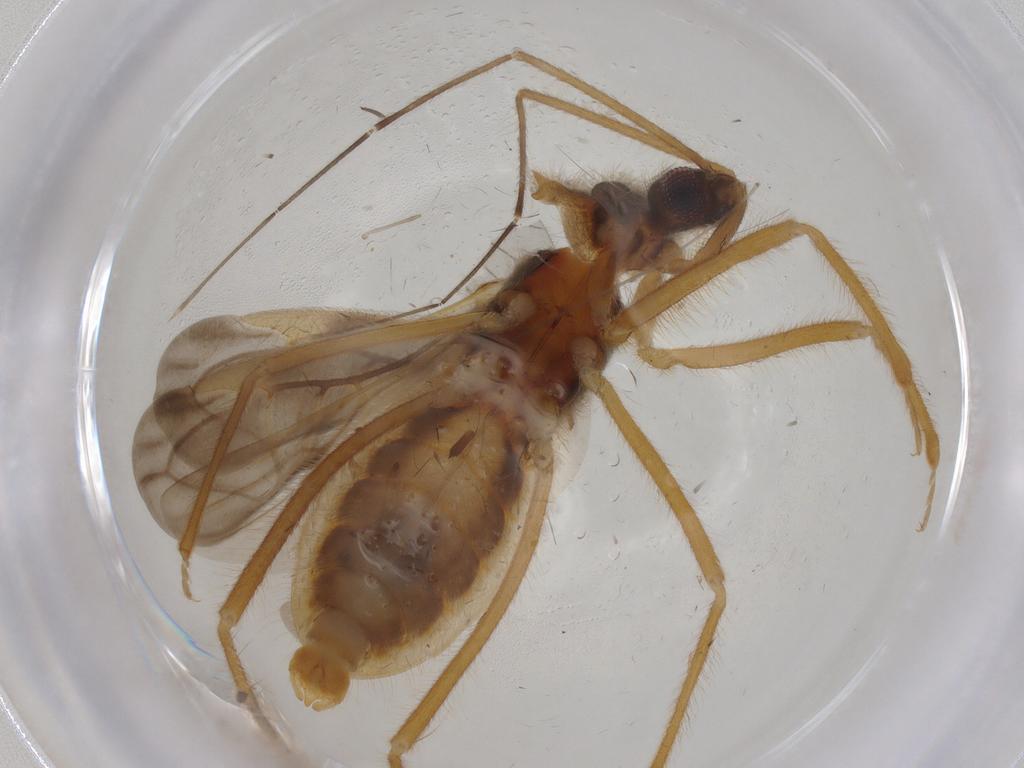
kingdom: Animalia
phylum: Arthropoda
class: Insecta
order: Hemiptera
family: Reduviidae
